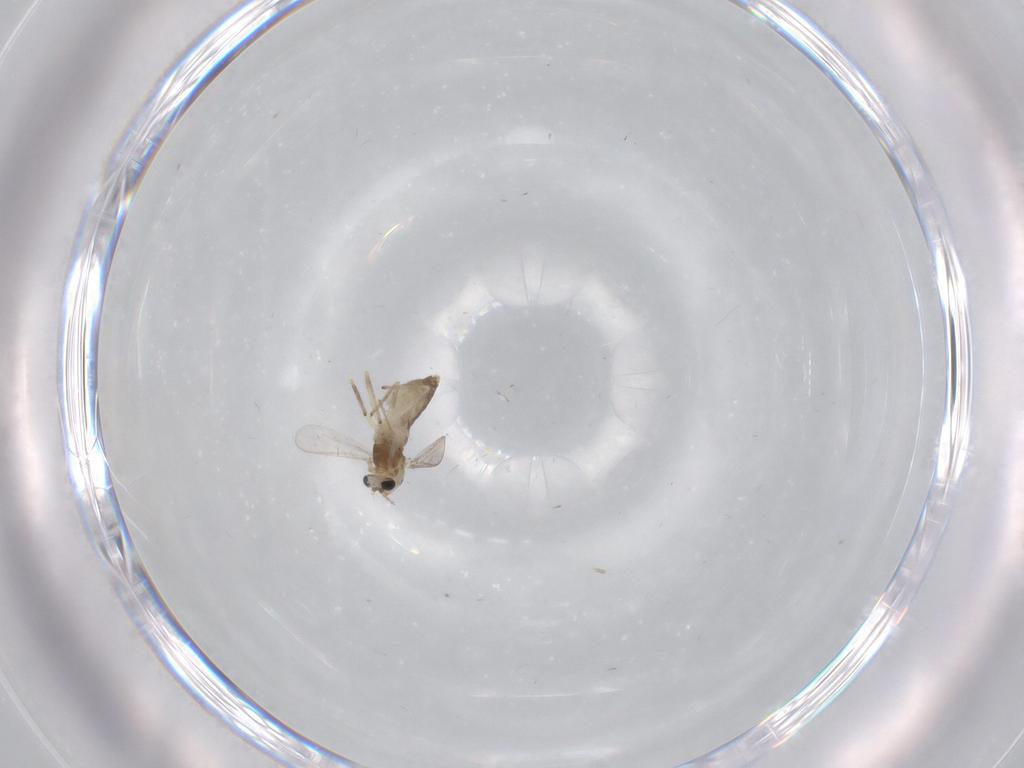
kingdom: Animalia
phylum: Arthropoda
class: Insecta
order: Diptera
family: Chironomidae
